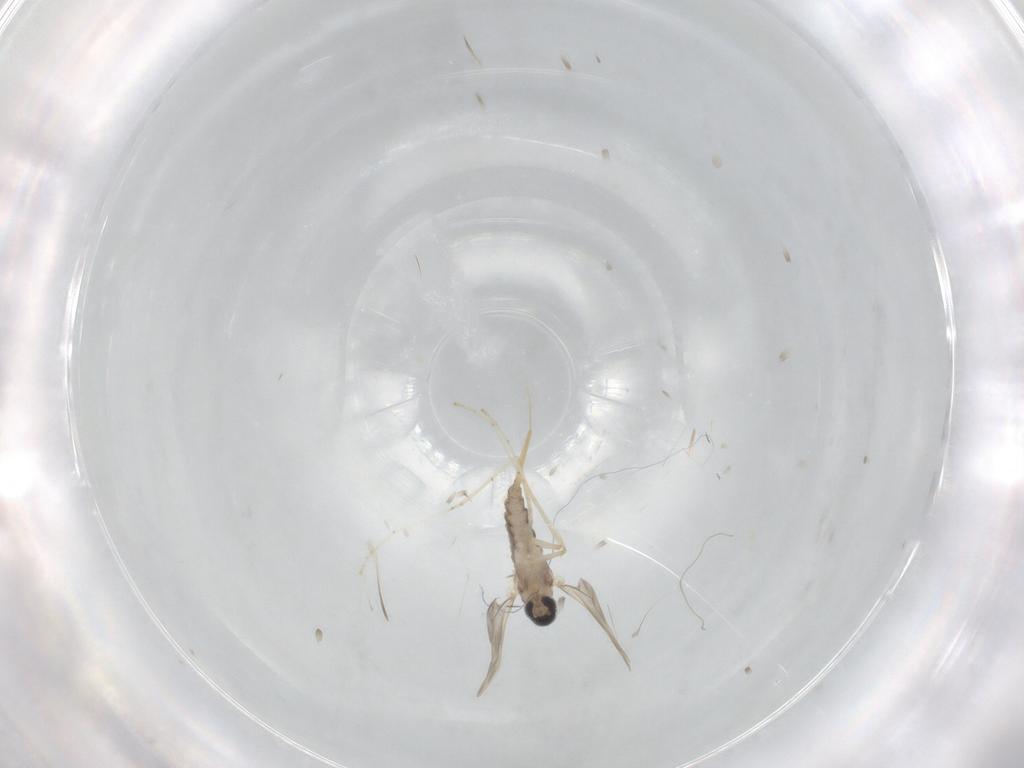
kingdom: Animalia
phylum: Arthropoda
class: Insecta
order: Diptera
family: Cecidomyiidae
